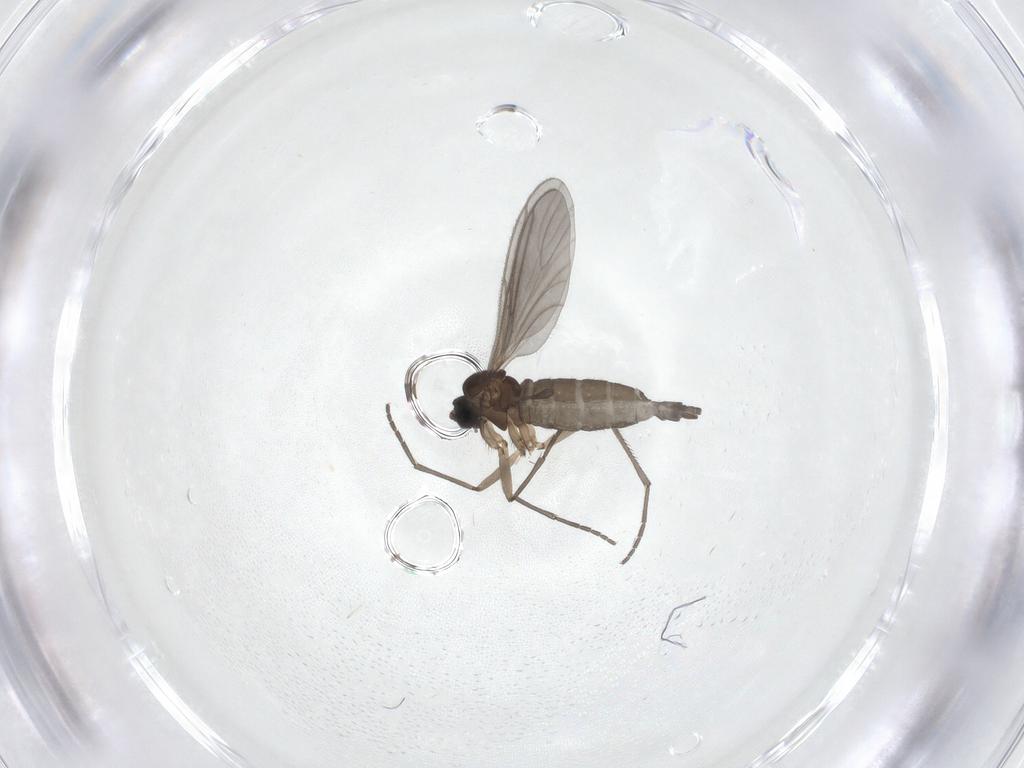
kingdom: Animalia
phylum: Arthropoda
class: Insecta
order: Diptera
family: Sciaridae
